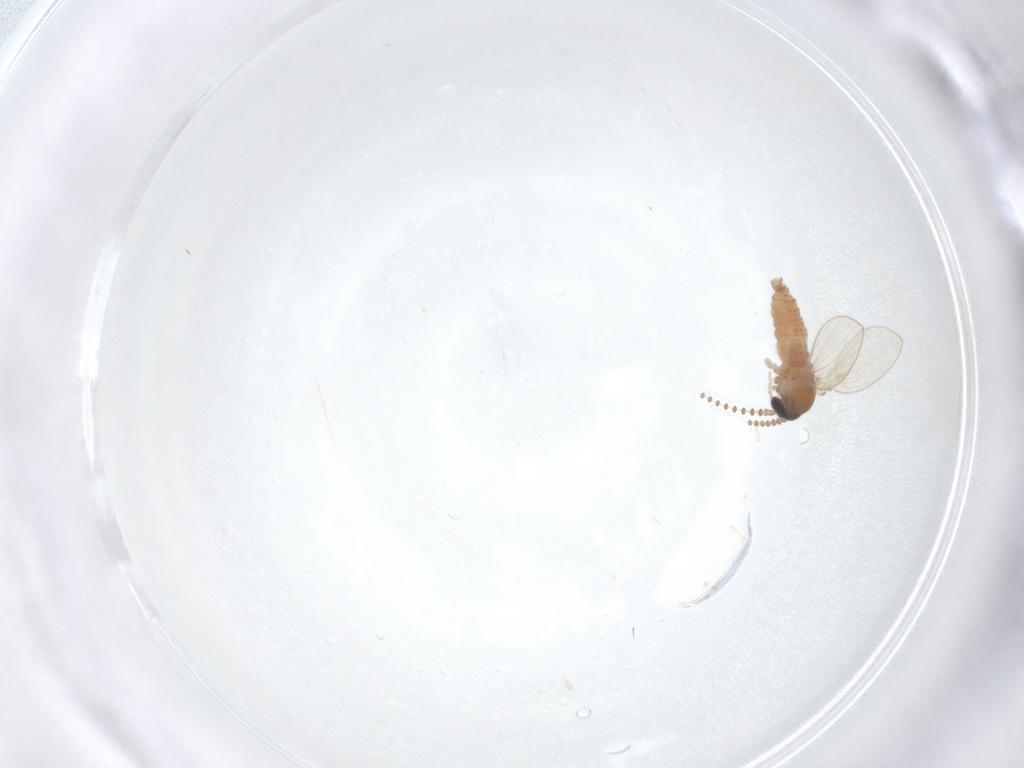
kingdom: Animalia
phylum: Arthropoda
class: Insecta
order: Diptera
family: Psychodidae
